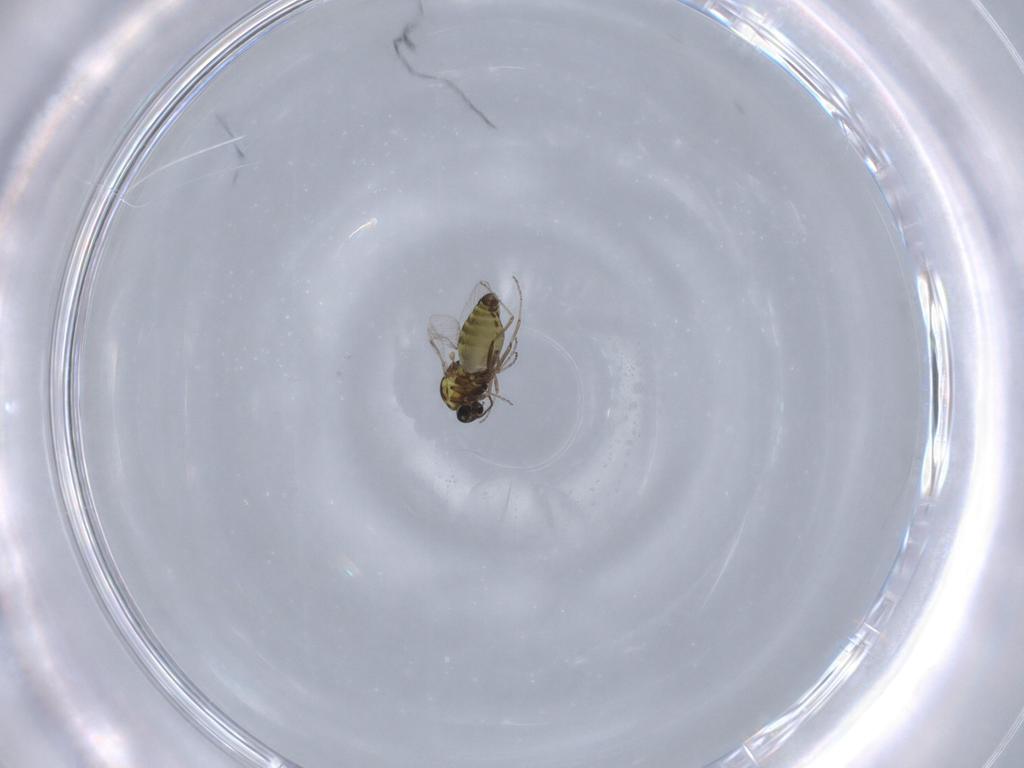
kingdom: Animalia
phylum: Arthropoda
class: Insecta
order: Diptera
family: Ceratopogonidae
